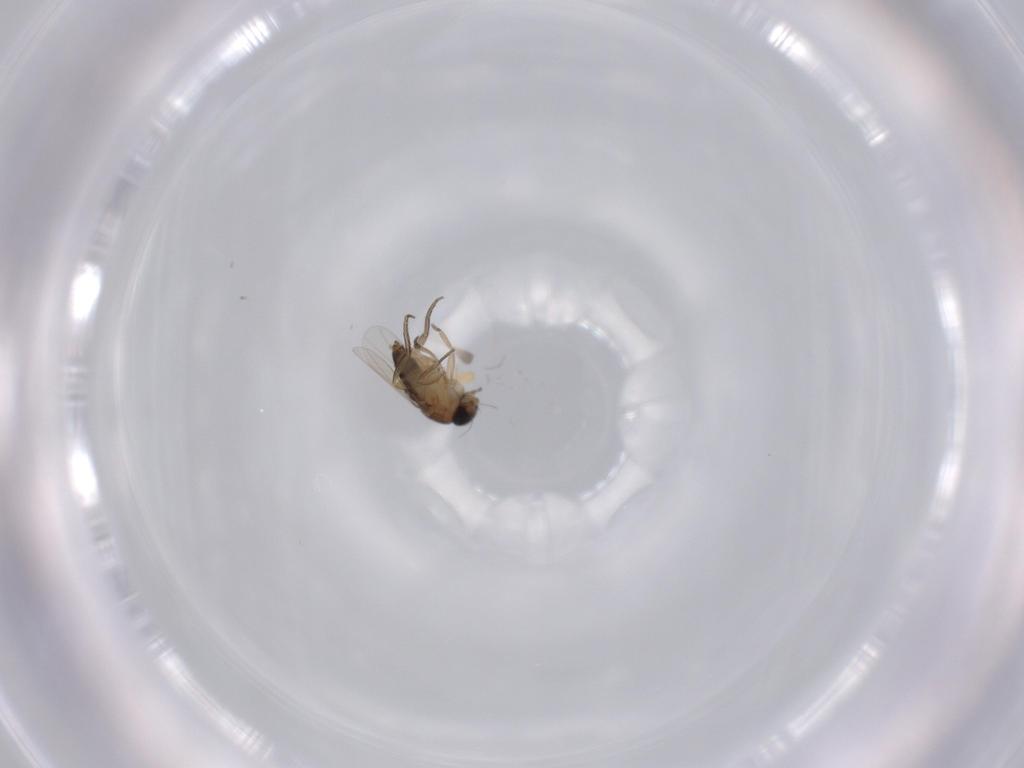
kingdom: Animalia
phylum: Arthropoda
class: Insecta
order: Diptera
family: Phoridae
